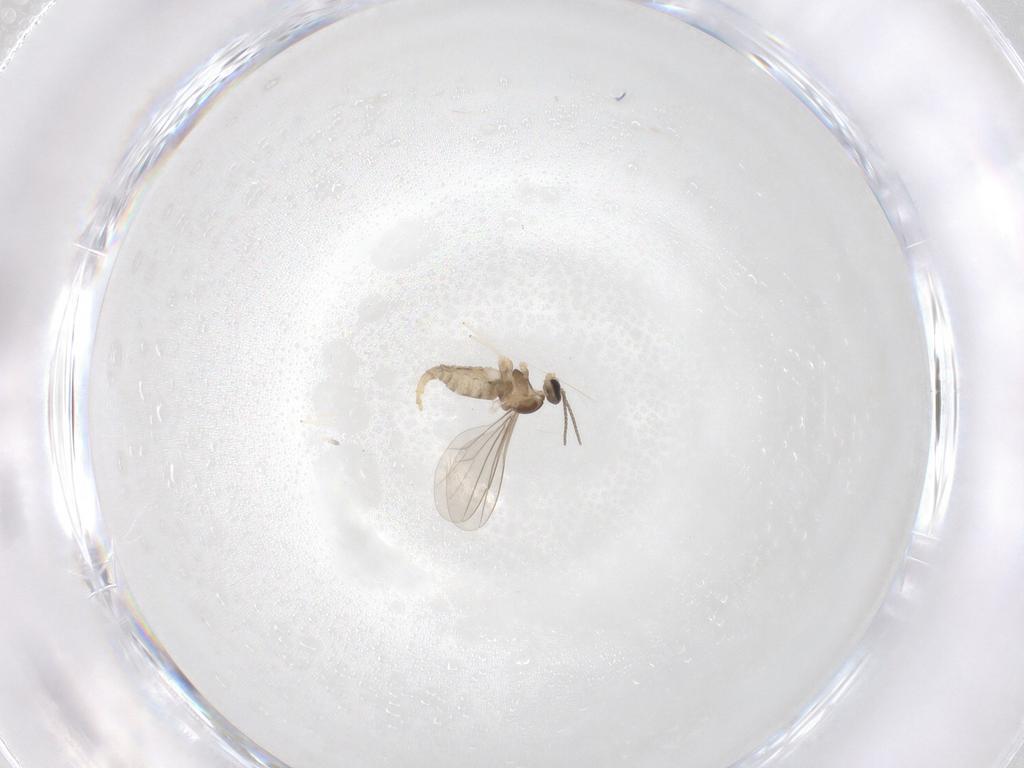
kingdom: Animalia
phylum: Arthropoda
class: Insecta
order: Diptera
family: Cecidomyiidae
